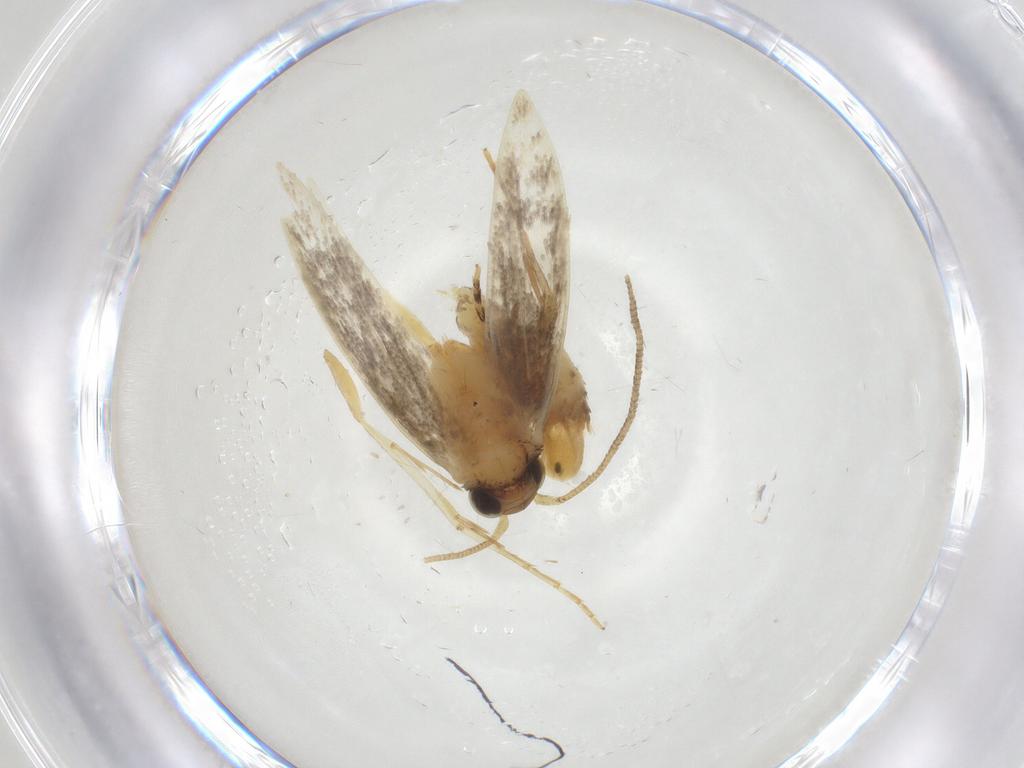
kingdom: Animalia
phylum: Arthropoda
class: Insecta
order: Lepidoptera
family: Tineidae
